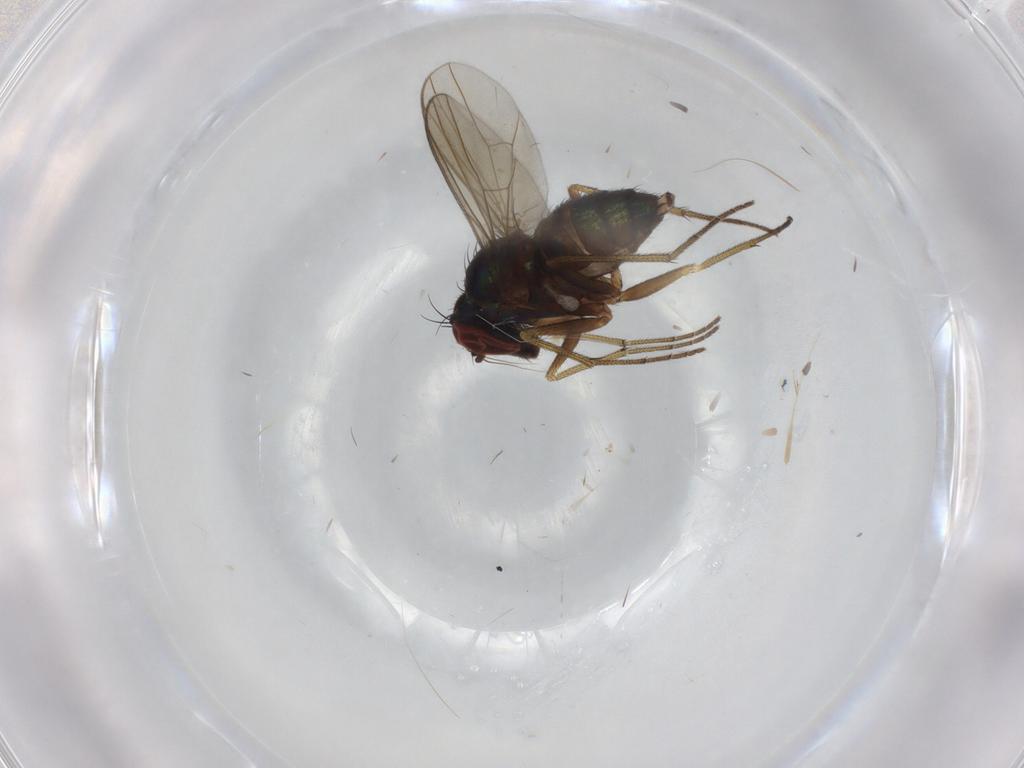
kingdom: Animalia
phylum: Arthropoda
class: Insecta
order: Diptera
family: Dolichopodidae
